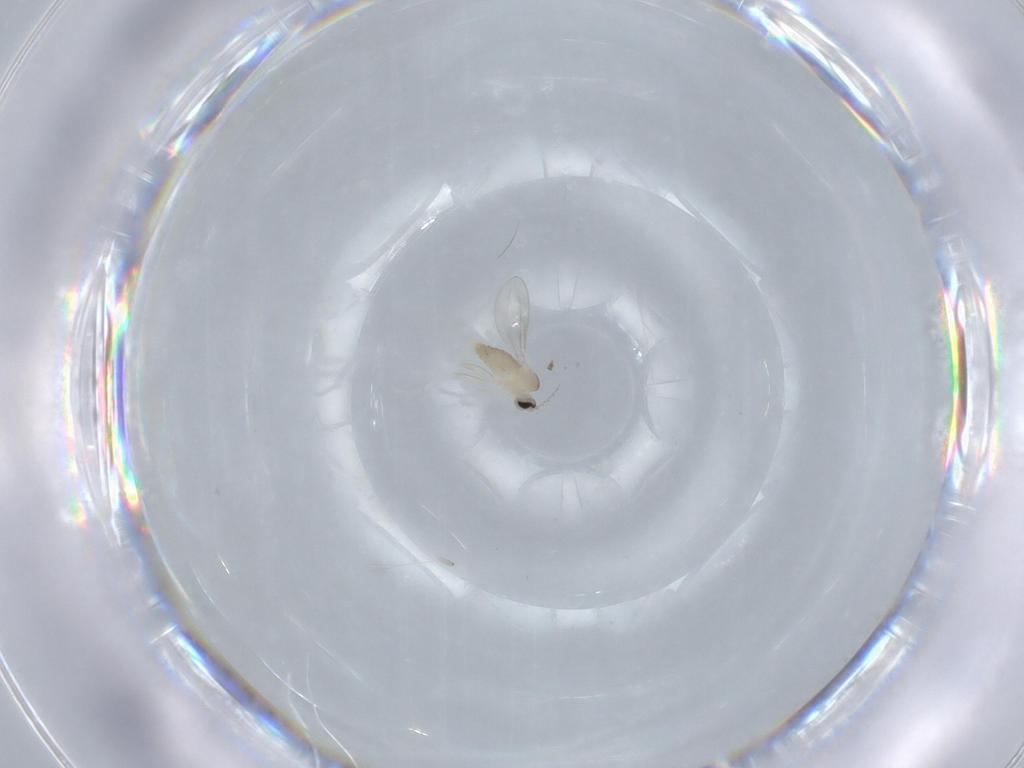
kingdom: Animalia
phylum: Arthropoda
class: Insecta
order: Diptera
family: Cecidomyiidae
